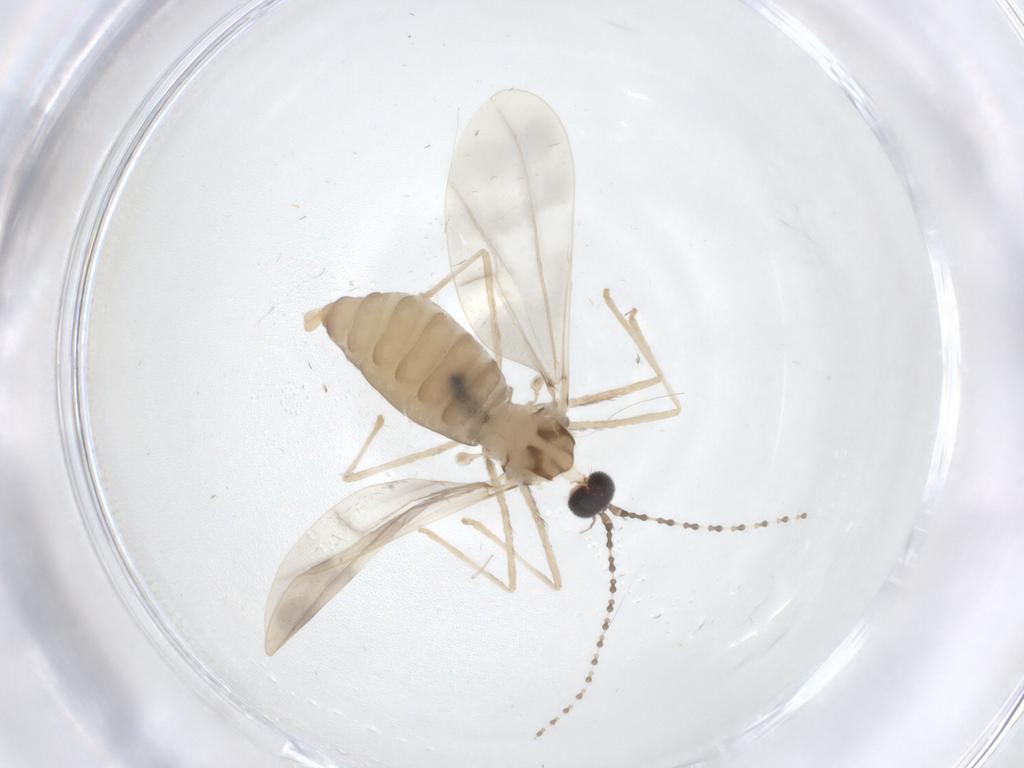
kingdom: Animalia
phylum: Arthropoda
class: Insecta
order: Diptera
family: Cecidomyiidae
